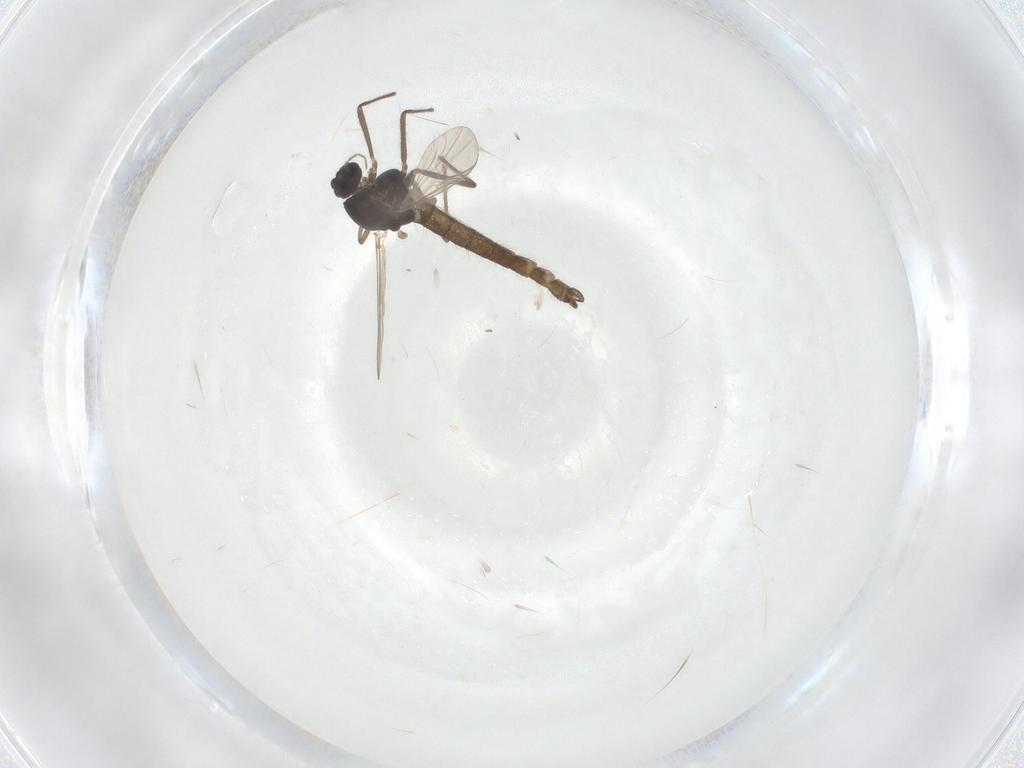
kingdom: Animalia
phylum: Arthropoda
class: Insecta
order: Diptera
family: Chironomidae
